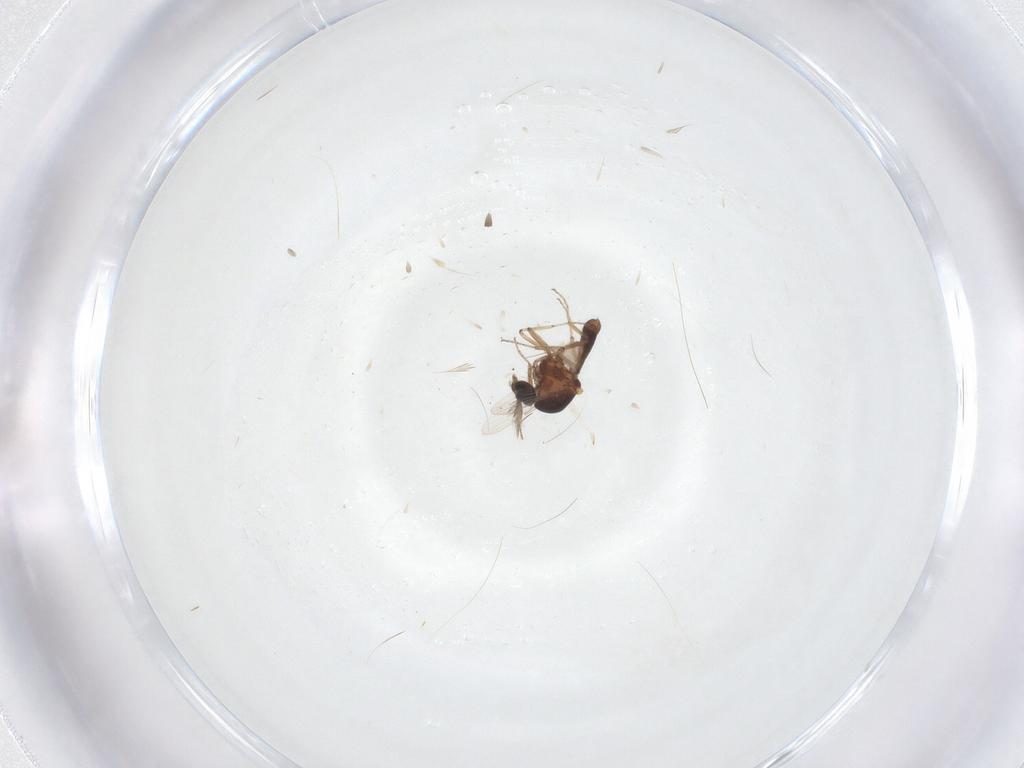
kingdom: Animalia
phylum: Arthropoda
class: Insecta
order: Diptera
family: Ceratopogonidae
